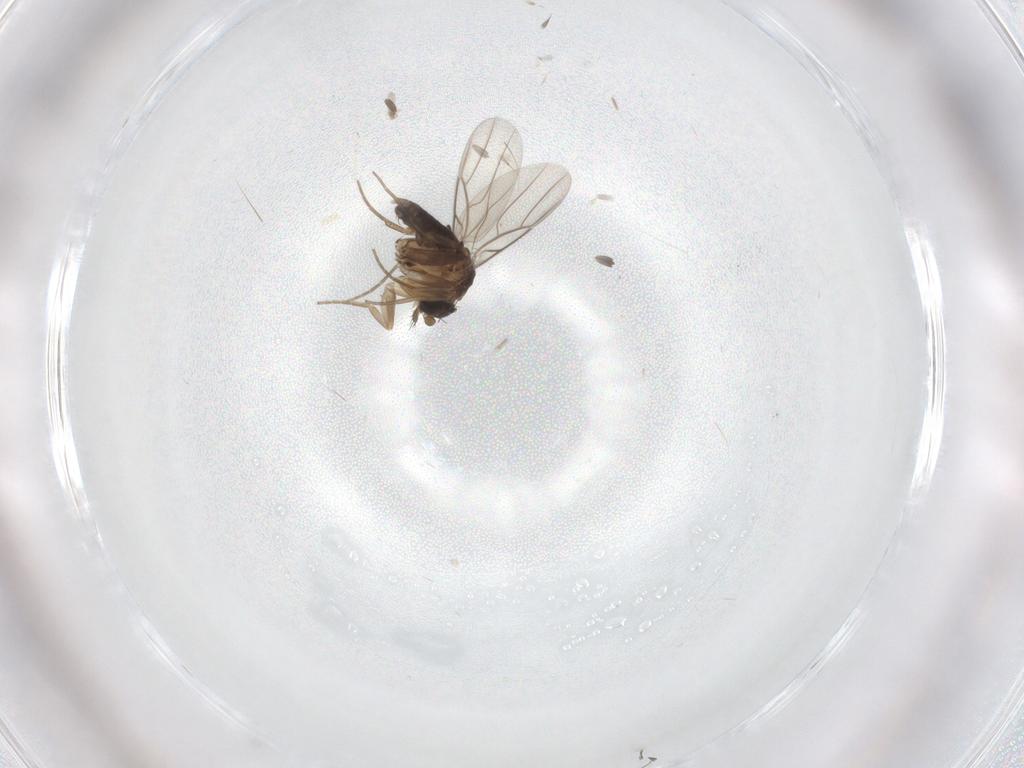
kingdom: Animalia
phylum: Arthropoda
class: Insecta
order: Diptera
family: Phoridae
